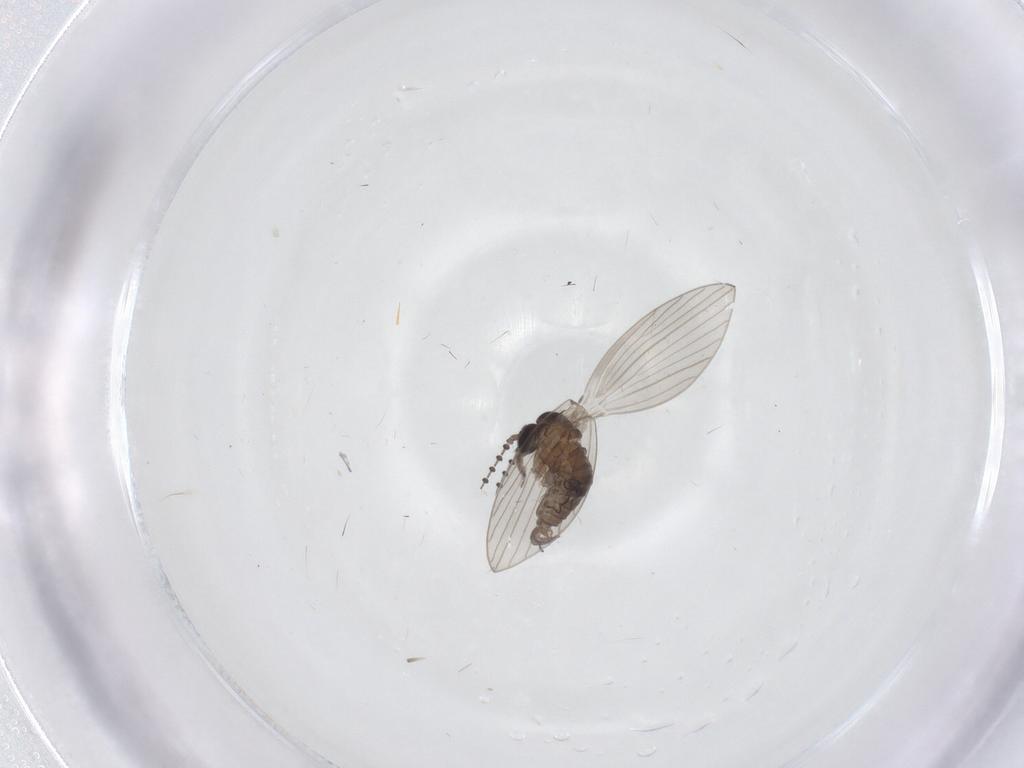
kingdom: Animalia
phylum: Arthropoda
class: Insecta
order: Diptera
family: Psychodidae
